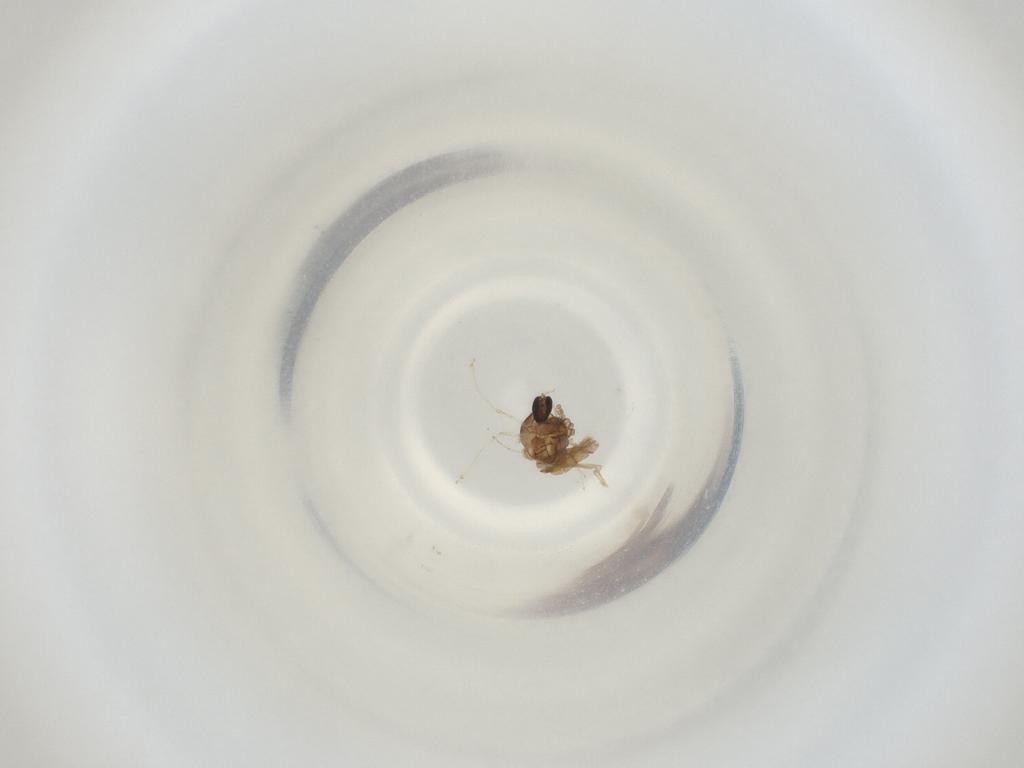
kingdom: Animalia
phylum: Arthropoda
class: Insecta
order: Diptera
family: Cecidomyiidae
